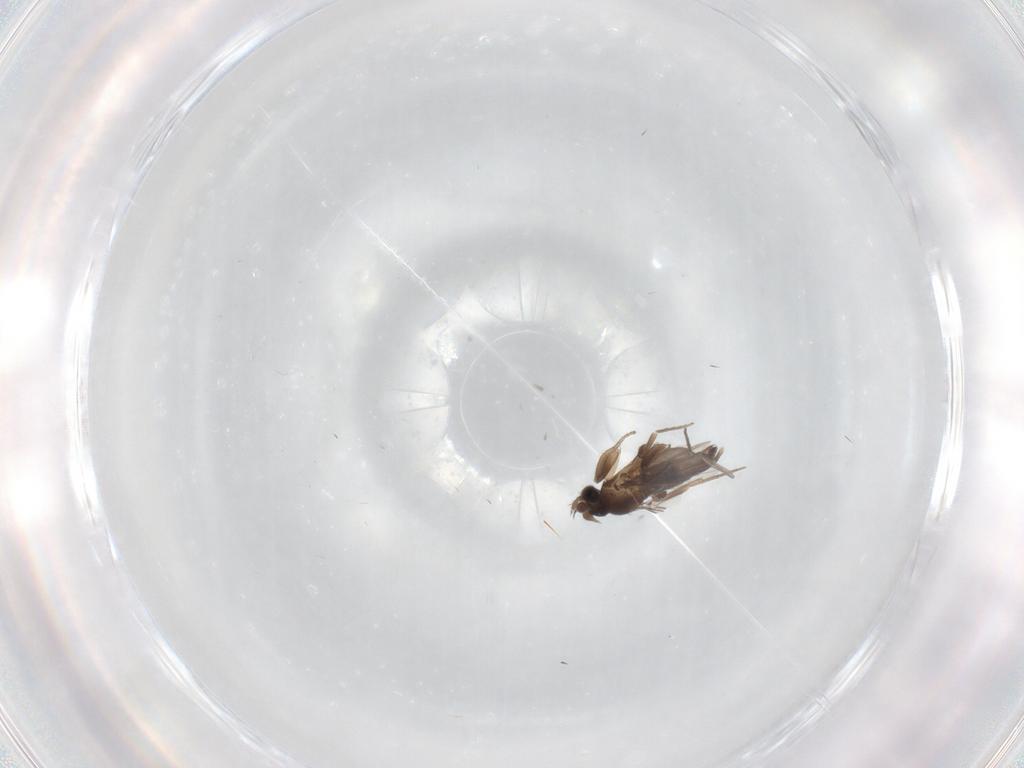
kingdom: Animalia
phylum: Arthropoda
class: Insecta
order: Diptera
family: Phoridae
